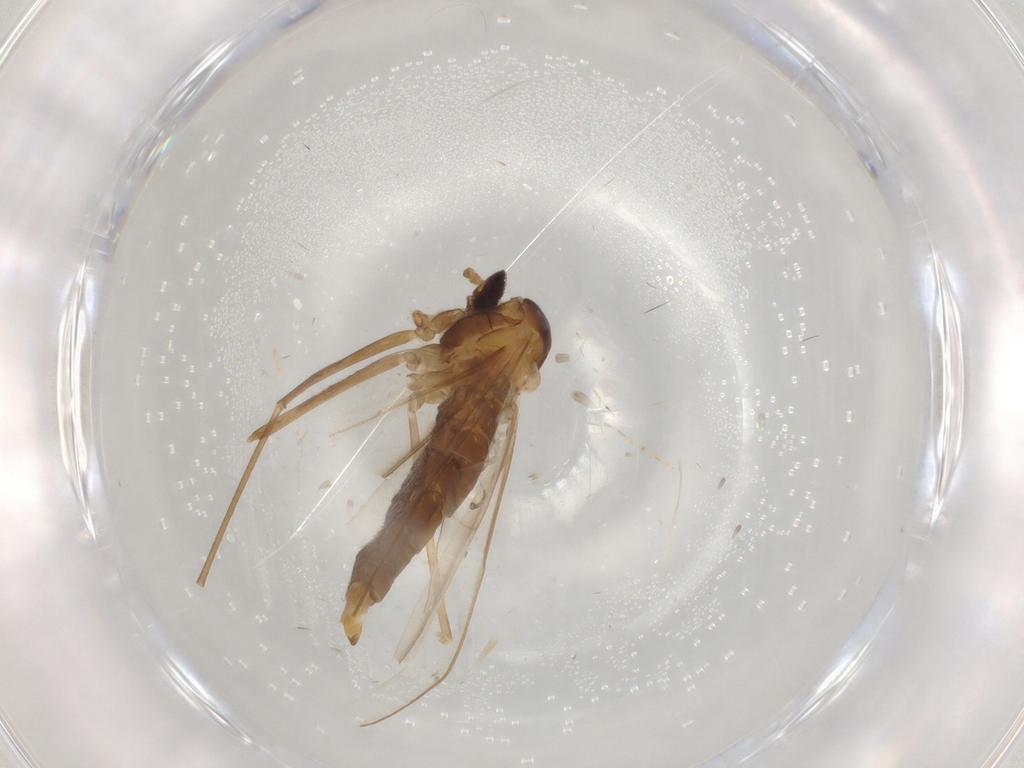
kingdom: Animalia
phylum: Arthropoda
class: Insecta
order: Diptera
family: Cecidomyiidae
